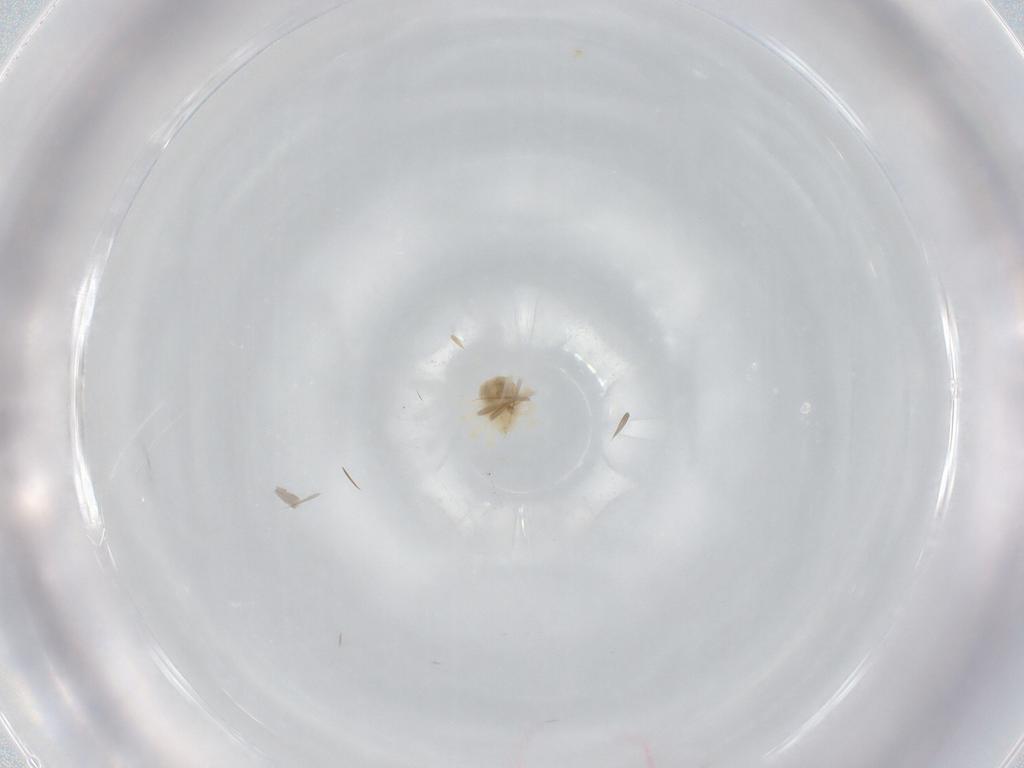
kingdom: Animalia
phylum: Arthropoda
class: Arachnida
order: Trombidiformes
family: Anystidae
